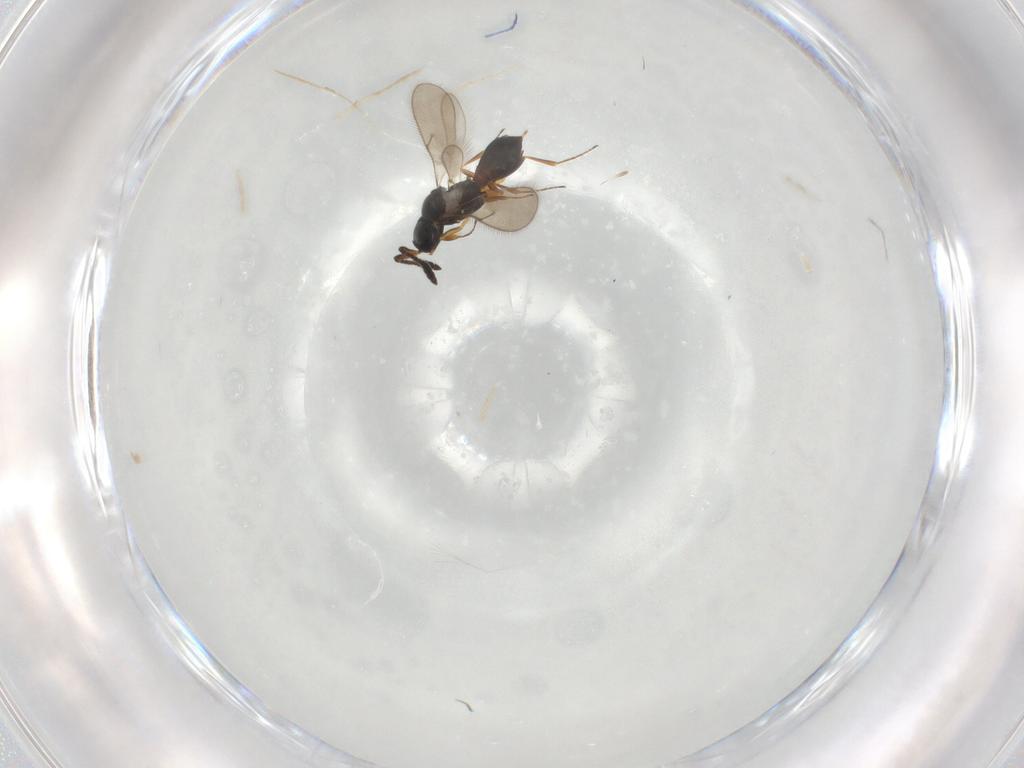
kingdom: Animalia
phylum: Arthropoda
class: Insecta
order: Hymenoptera
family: Scelionidae
